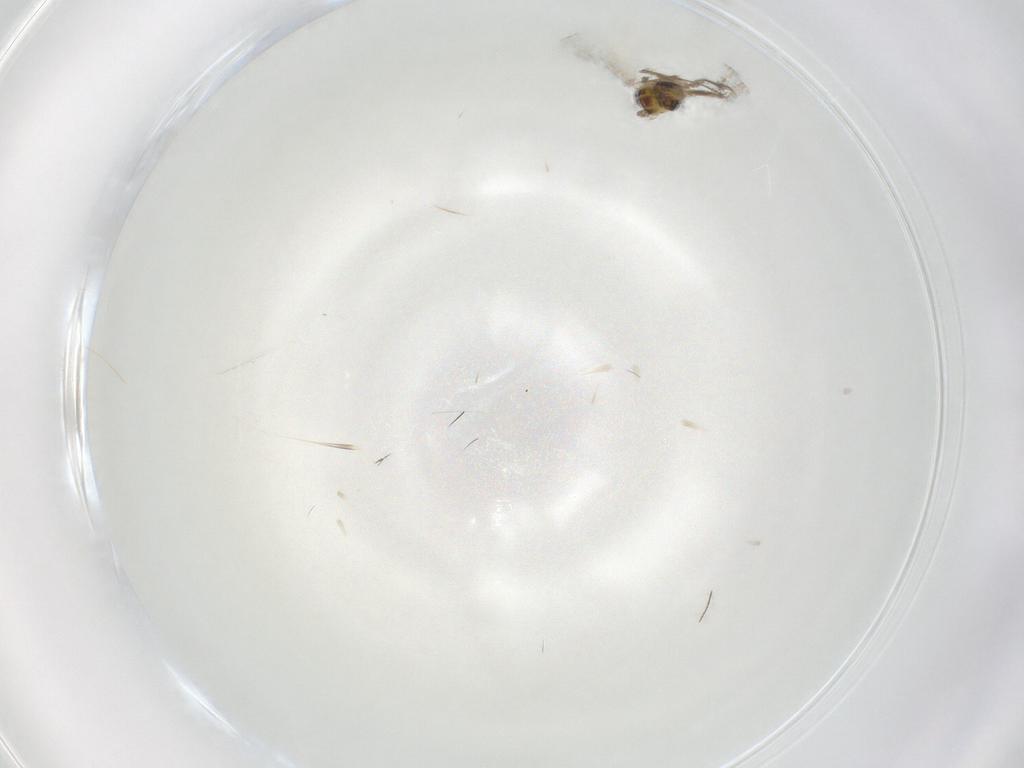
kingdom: Animalia
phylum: Arthropoda
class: Insecta
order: Diptera
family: Chironomidae
